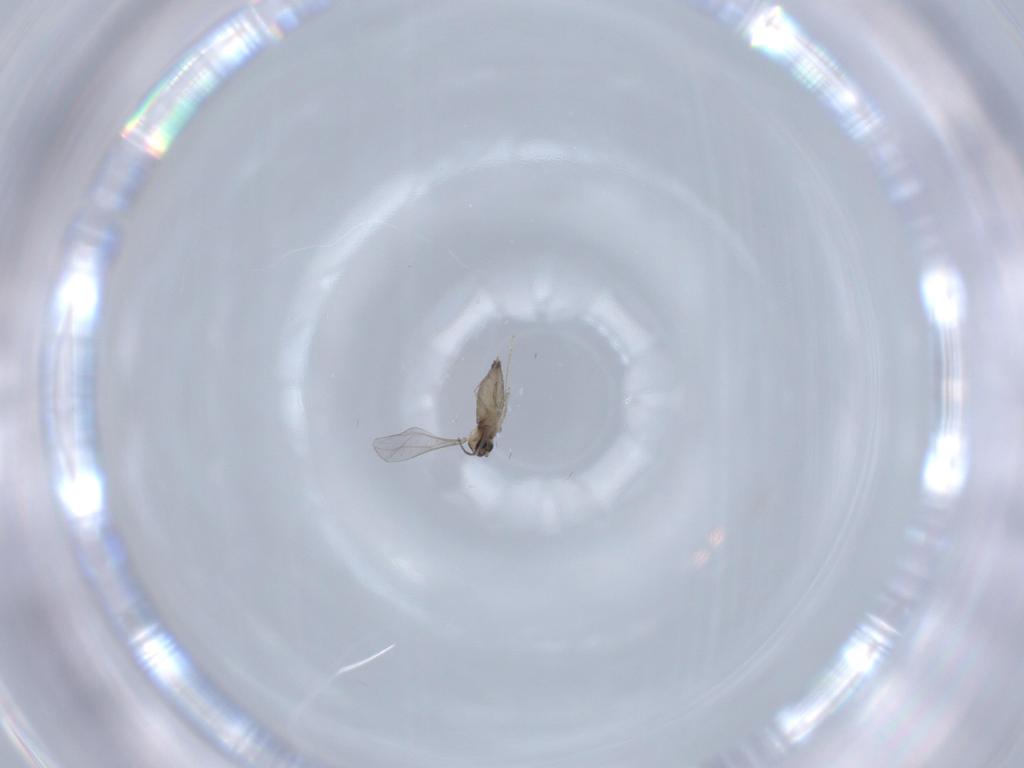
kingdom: Animalia
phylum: Arthropoda
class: Insecta
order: Diptera
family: Cecidomyiidae
